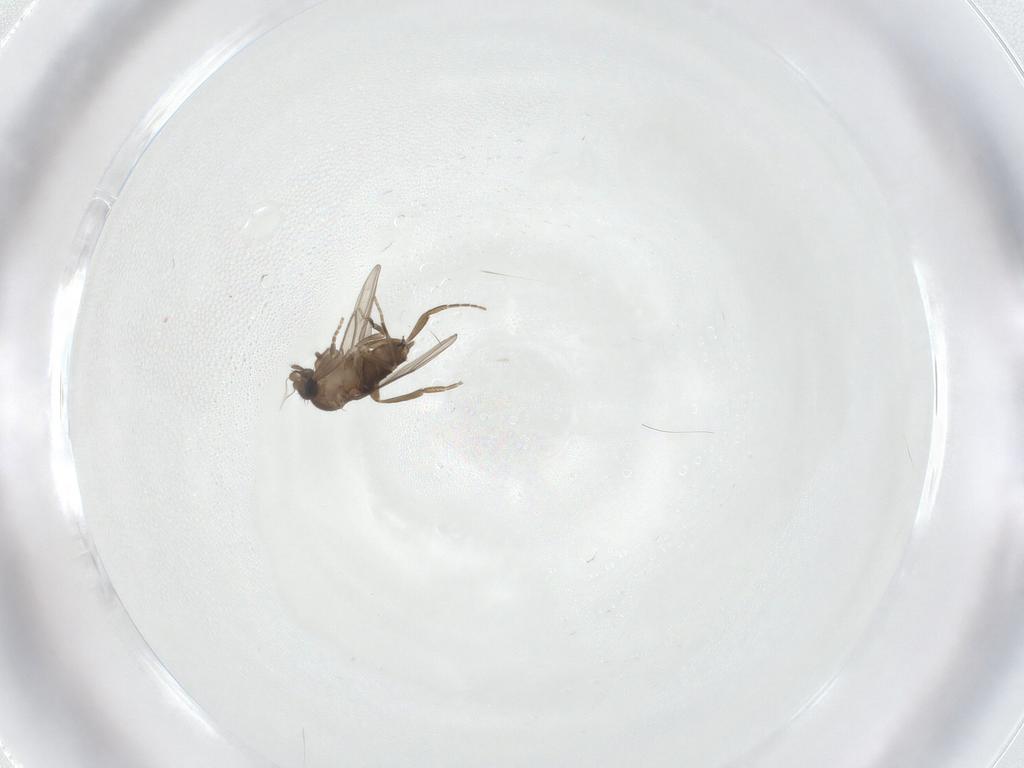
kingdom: Animalia
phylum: Arthropoda
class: Insecta
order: Diptera
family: Phoridae
